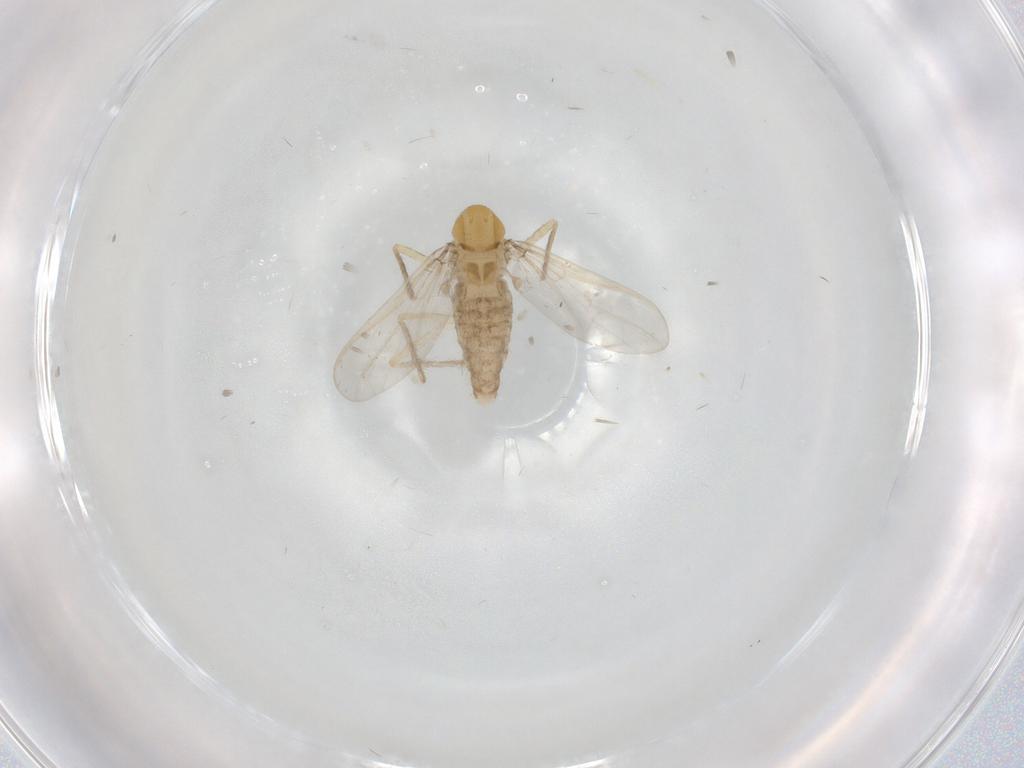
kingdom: Animalia
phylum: Arthropoda
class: Insecta
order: Diptera
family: Chironomidae
